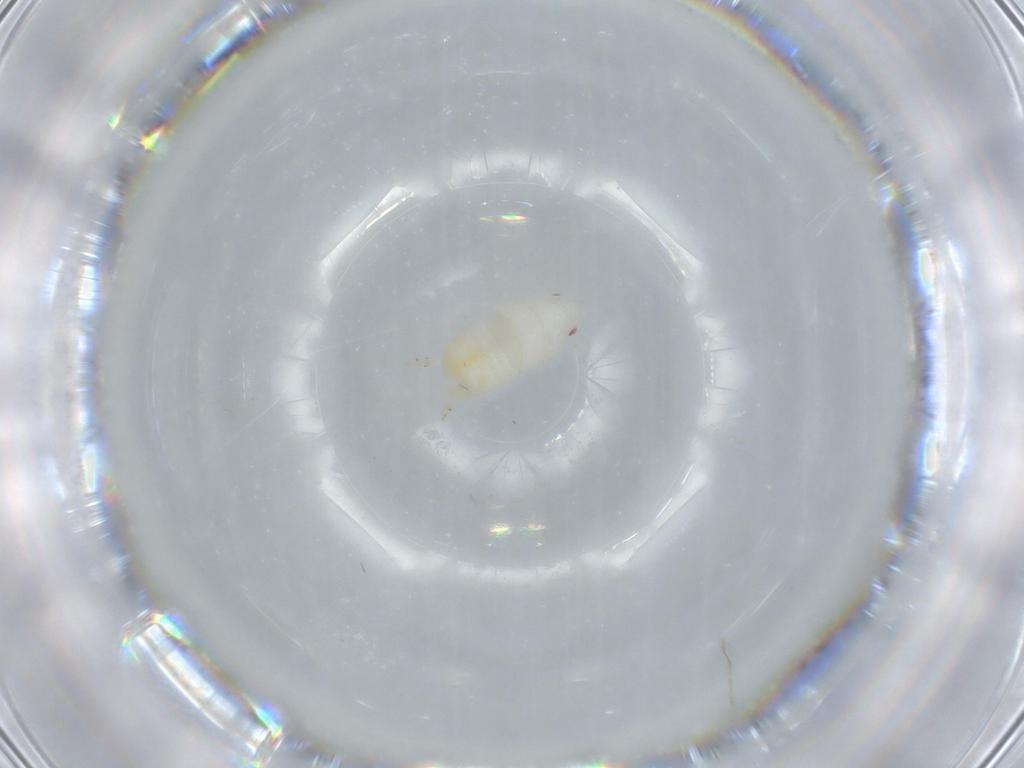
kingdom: Animalia
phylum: Arthropoda
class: Insecta
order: Hemiptera
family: Flatidae
